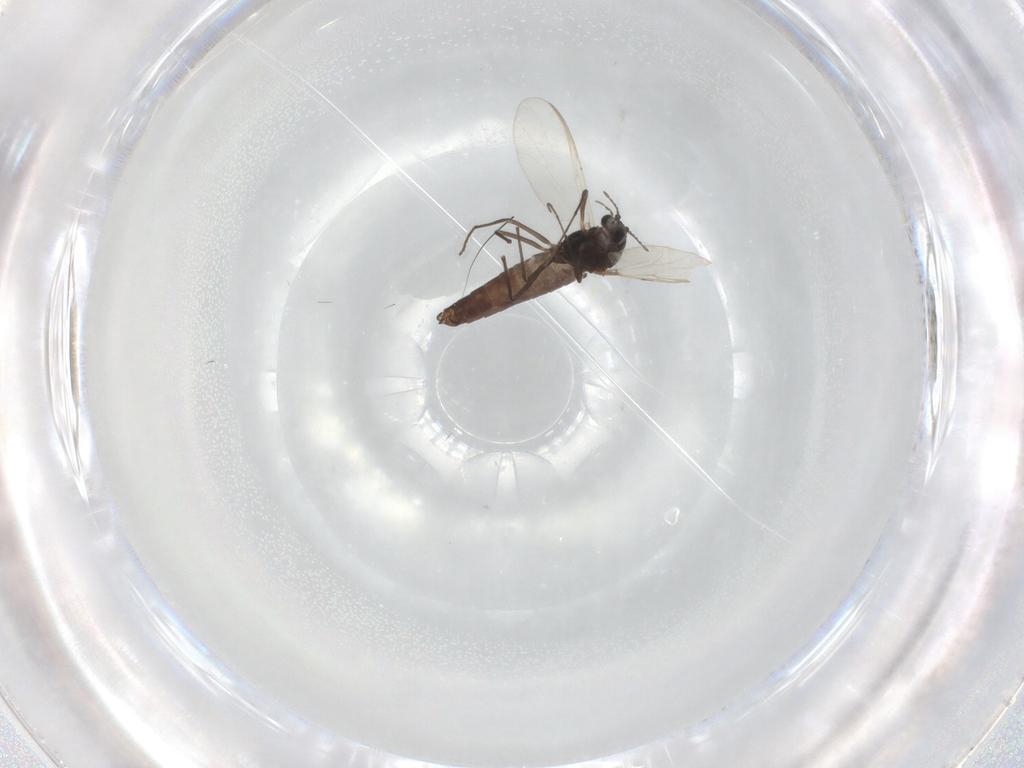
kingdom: Animalia
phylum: Arthropoda
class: Insecta
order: Diptera
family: Chironomidae
